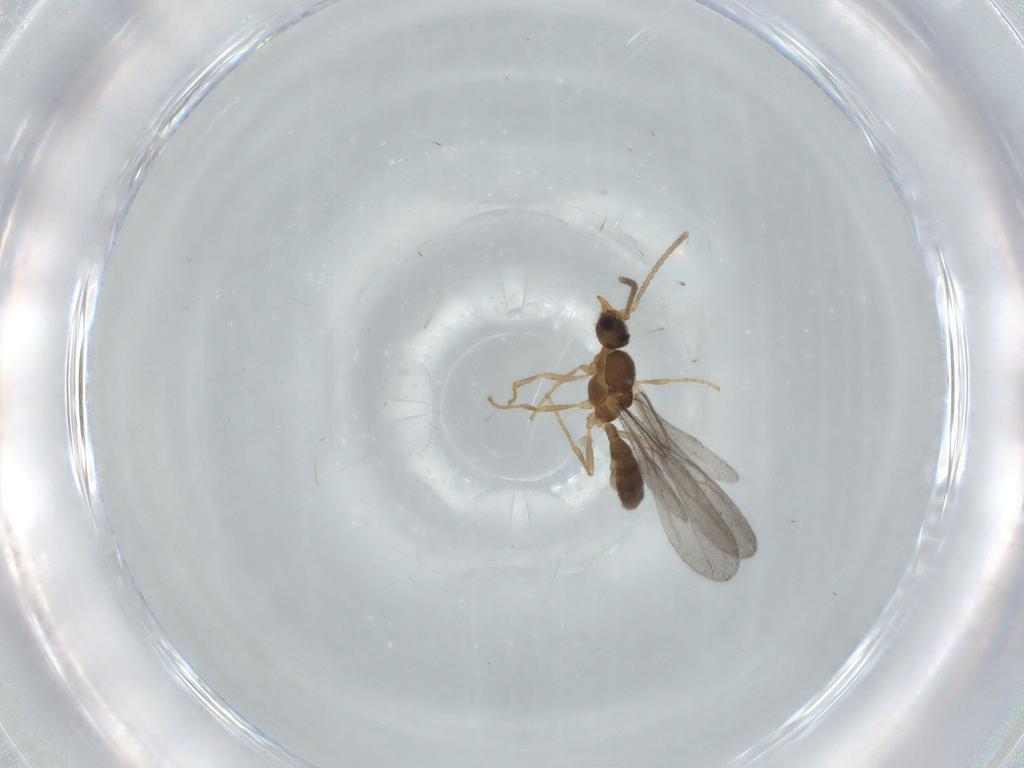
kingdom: Animalia
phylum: Arthropoda
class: Insecta
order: Hymenoptera
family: Formicidae
